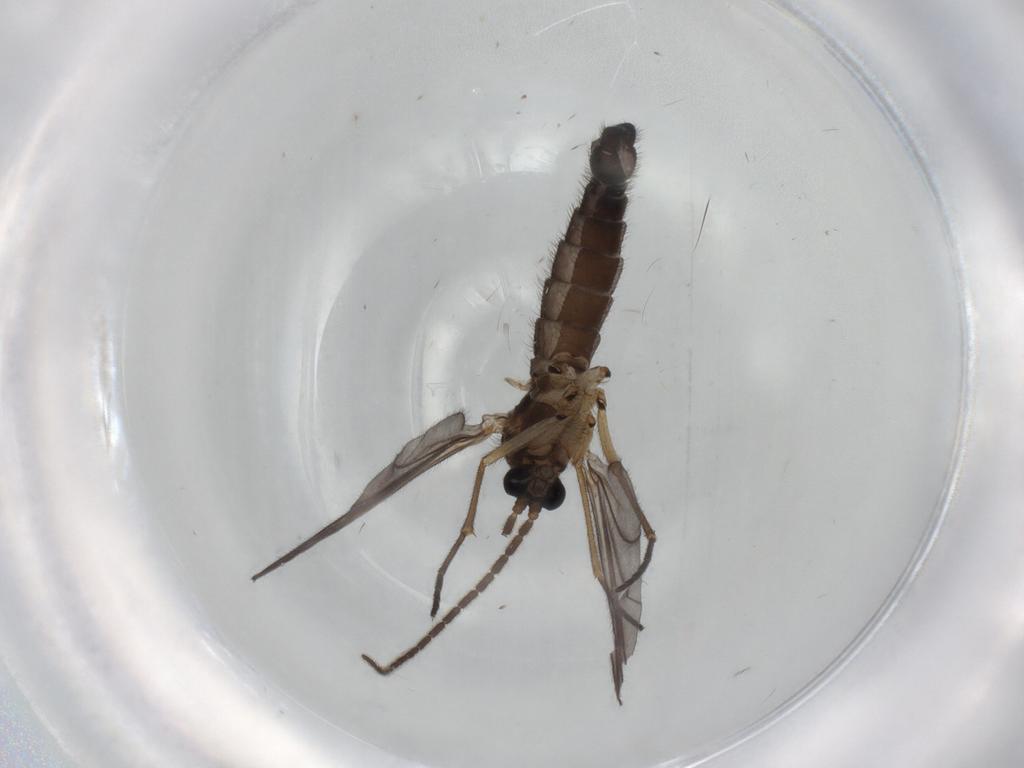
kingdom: Animalia
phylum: Arthropoda
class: Insecta
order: Diptera
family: Sciaridae
